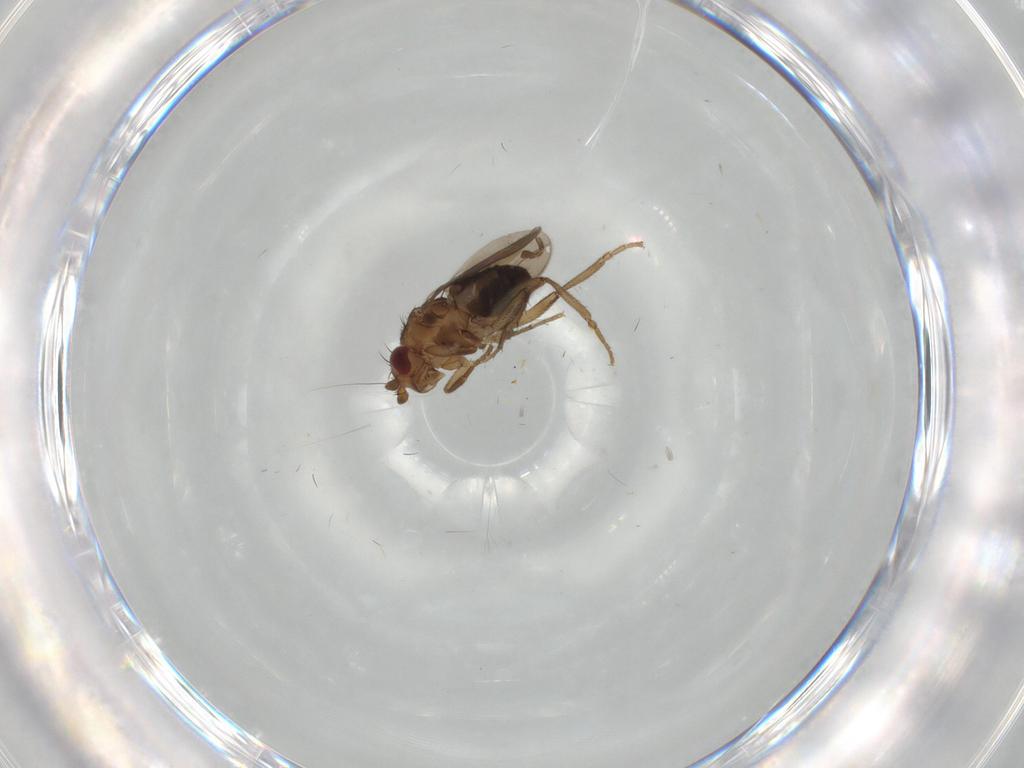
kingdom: Animalia
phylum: Arthropoda
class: Insecta
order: Diptera
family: Sphaeroceridae
